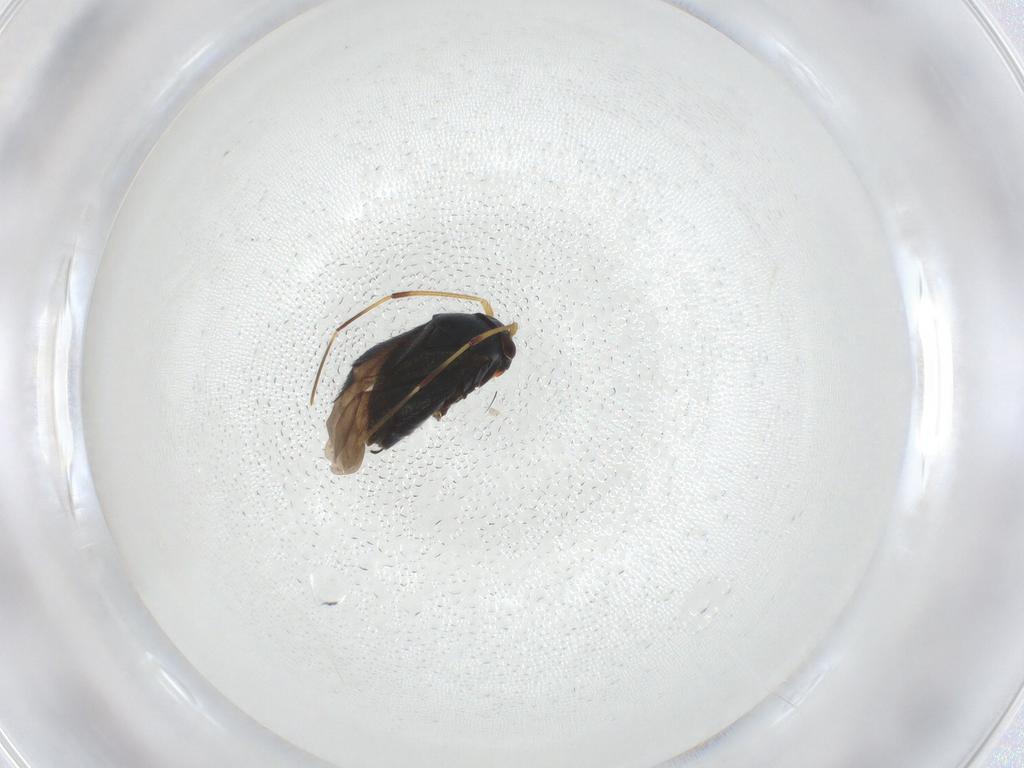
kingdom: Animalia
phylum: Arthropoda
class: Insecta
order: Hemiptera
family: Miridae
